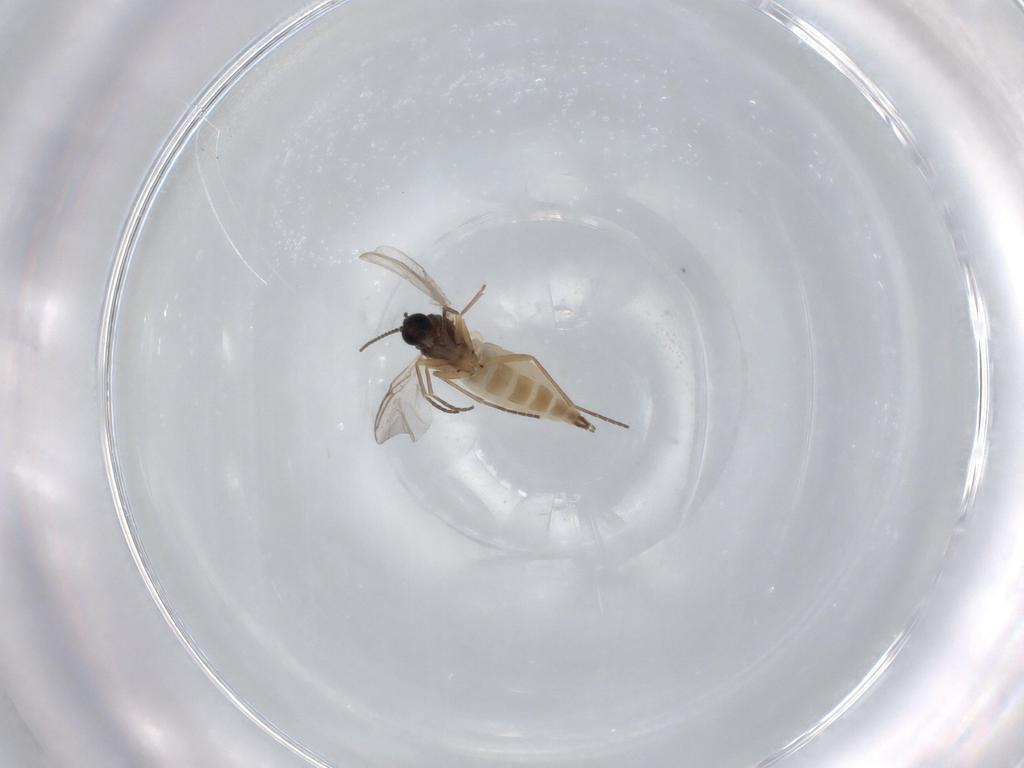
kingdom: Animalia
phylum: Arthropoda
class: Insecta
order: Diptera
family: Sciaridae
